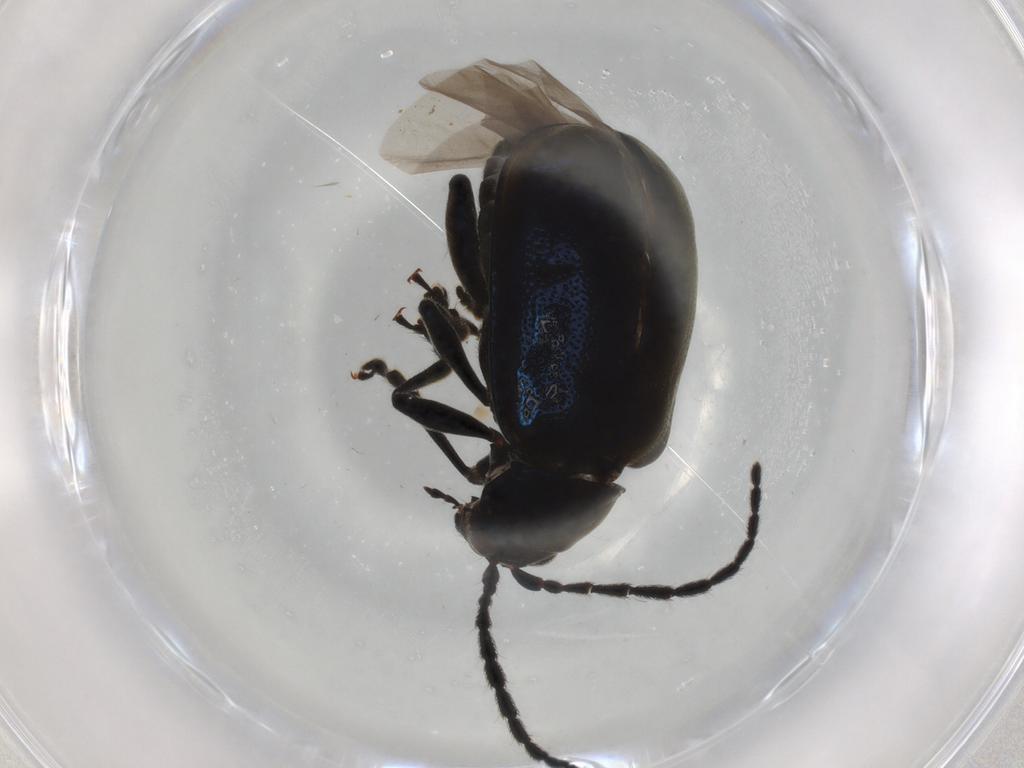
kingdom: Animalia
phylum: Arthropoda
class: Insecta
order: Coleoptera
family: Chrysomelidae
